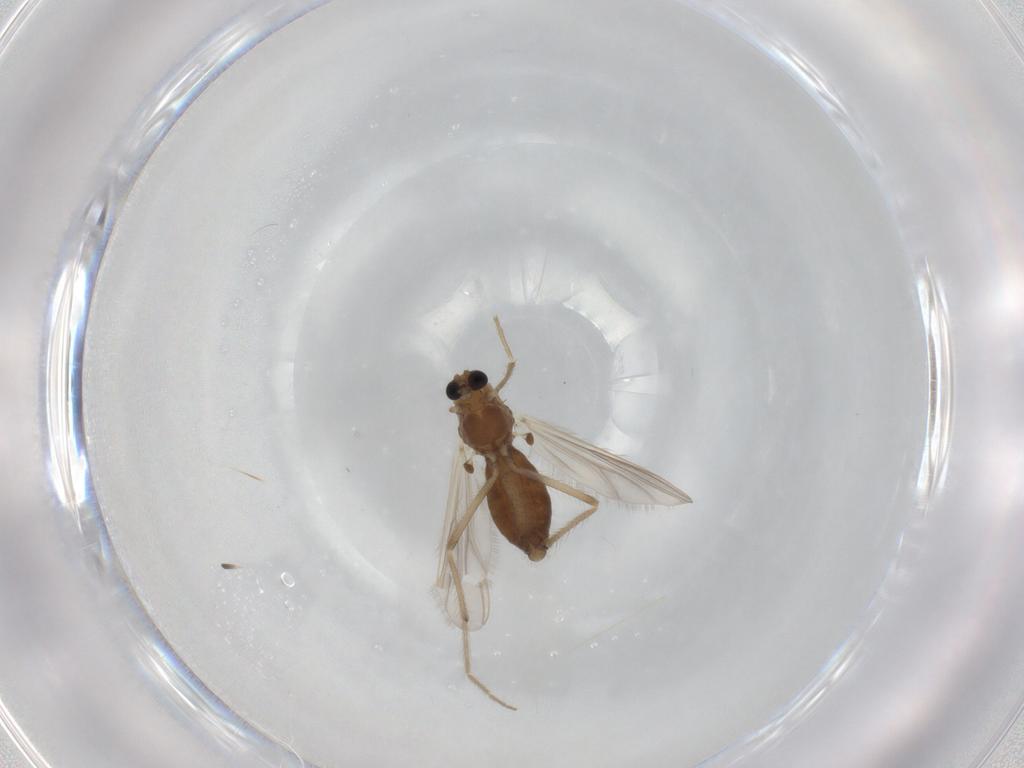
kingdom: Animalia
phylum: Arthropoda
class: Insecta
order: Diptera
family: Chironomidae
